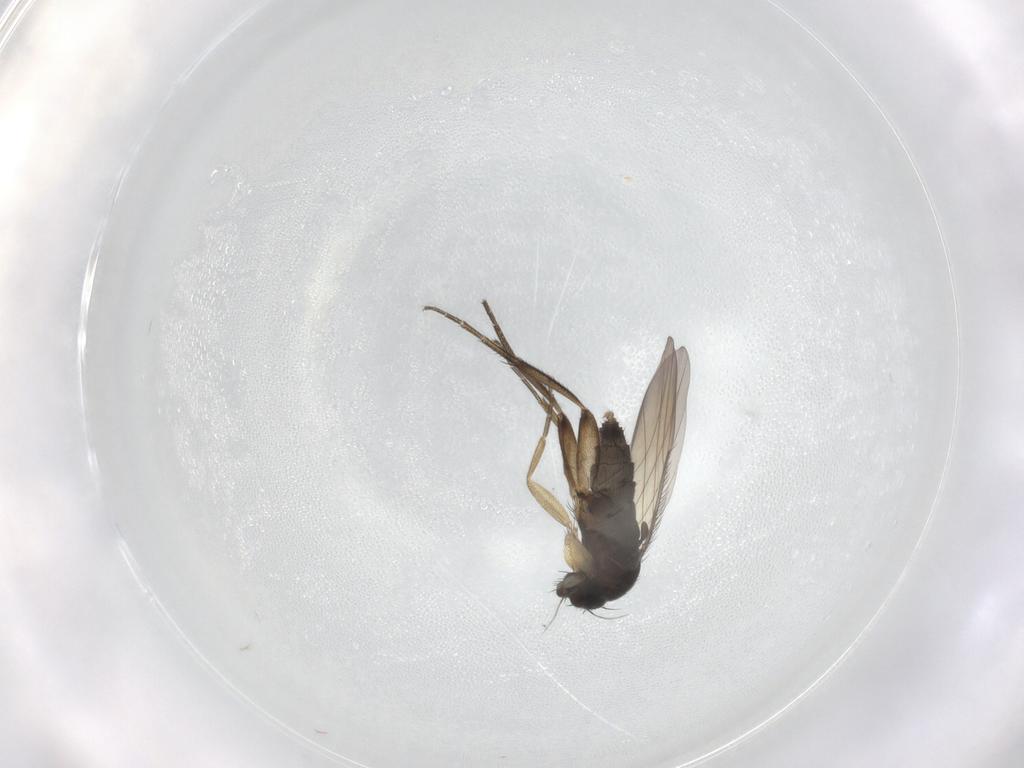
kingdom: Animalia
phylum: Arthropoda
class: Insecta
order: Diptera
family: Phoridae
